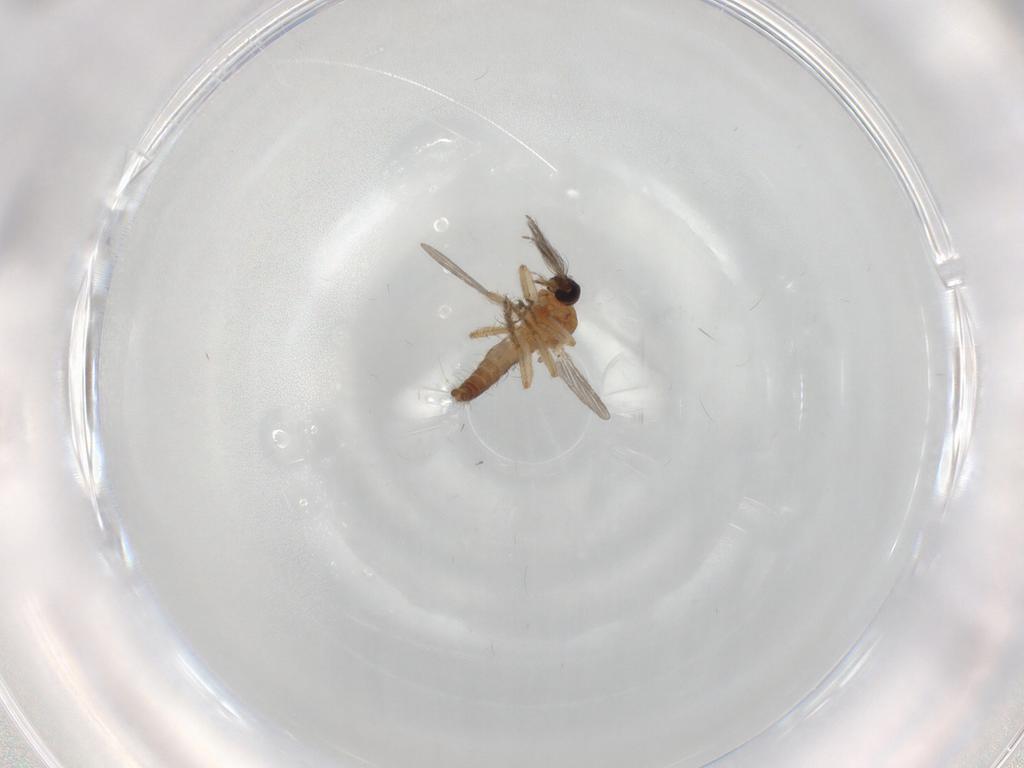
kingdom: Animalia
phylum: Arthropoda
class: Insecta
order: Diptera
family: Ceratopogonidae
